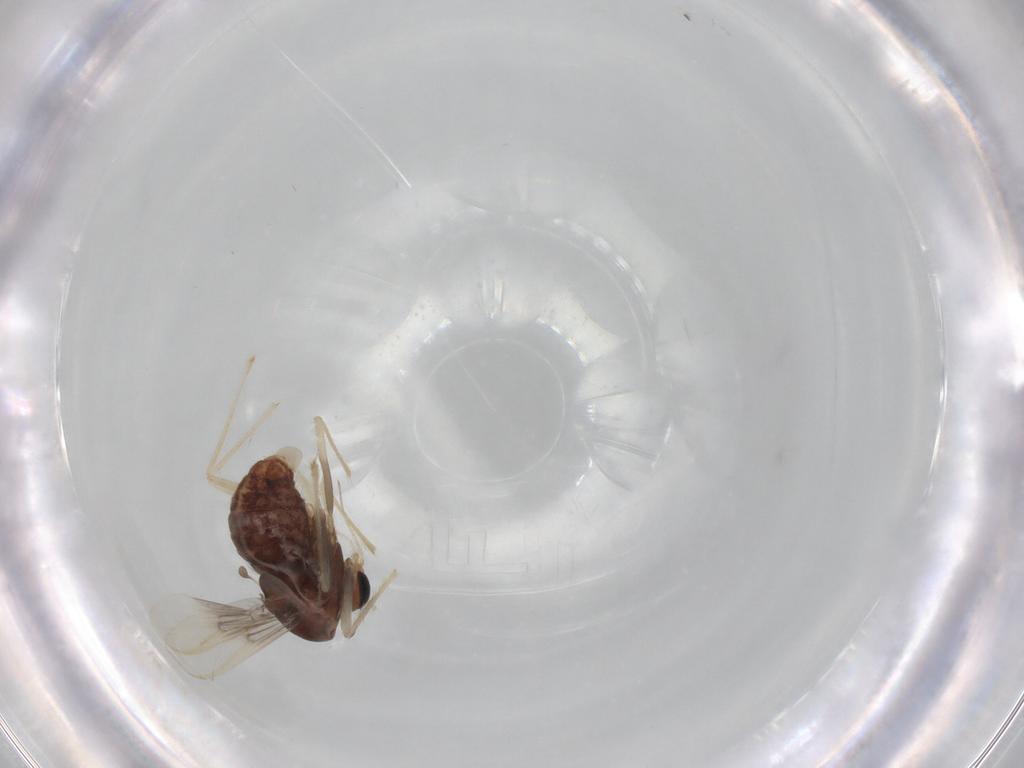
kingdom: Animalia
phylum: Arthropoda
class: Insecta
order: Diptera
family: Chironomidae
